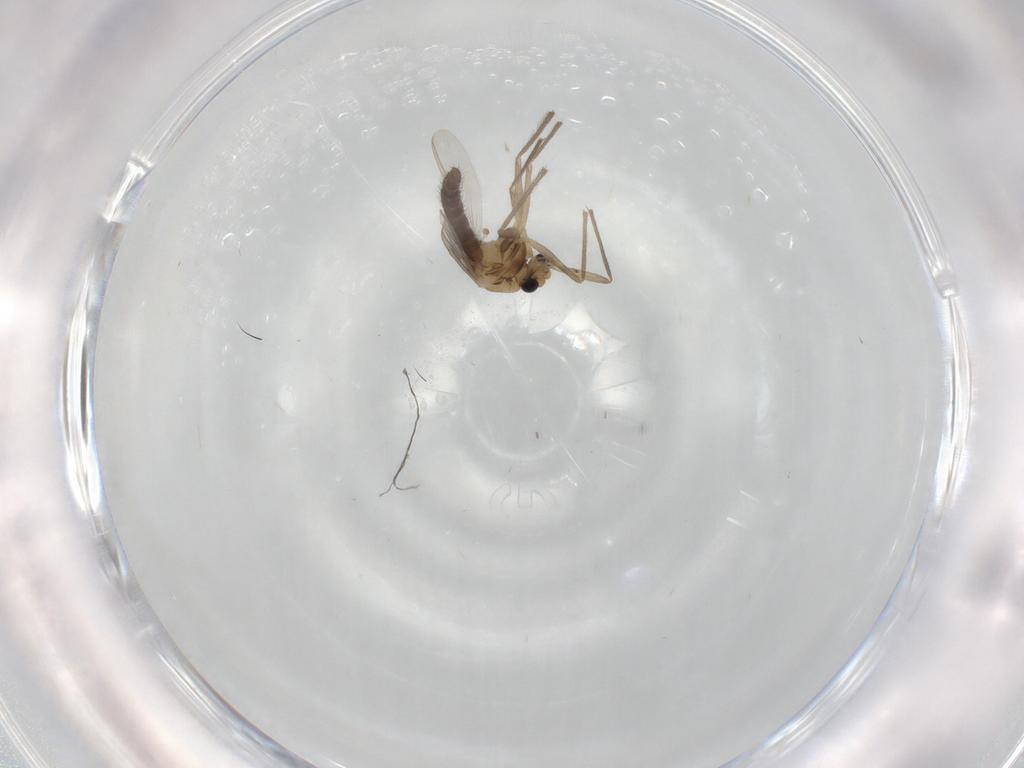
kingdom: Animalia
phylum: Arthropoda
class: Insecta
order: Diptera
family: Chironomidae
